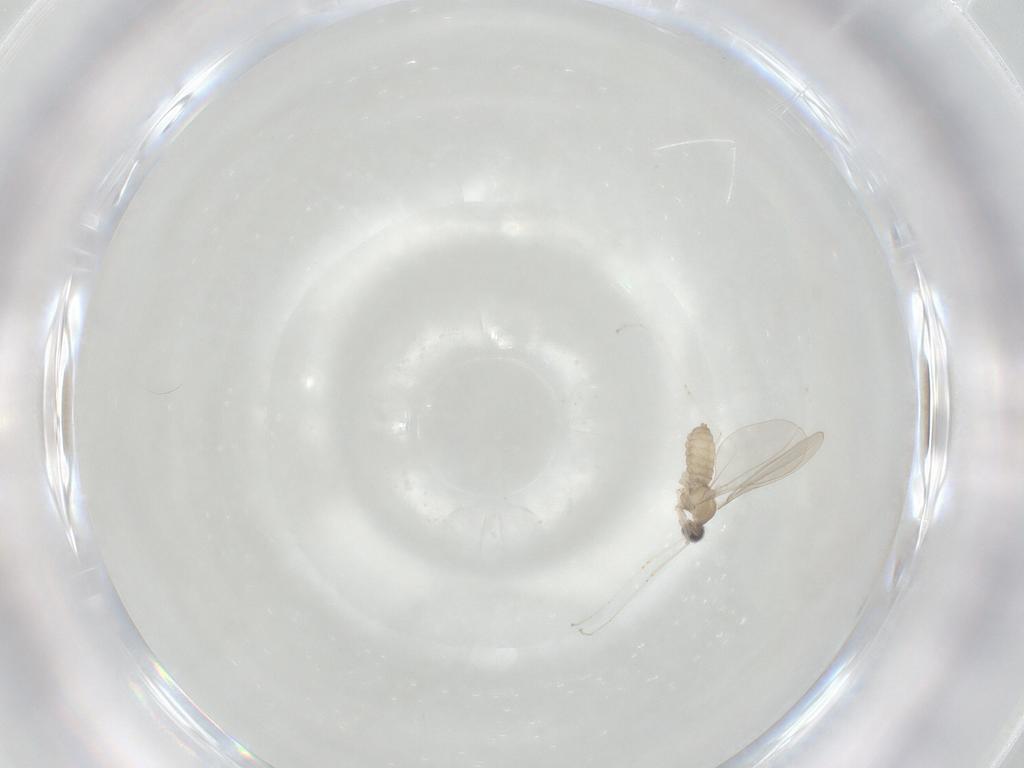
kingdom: Animalia
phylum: Arthropoda
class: Insecta
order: Diptera
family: Cecidomyiidae
